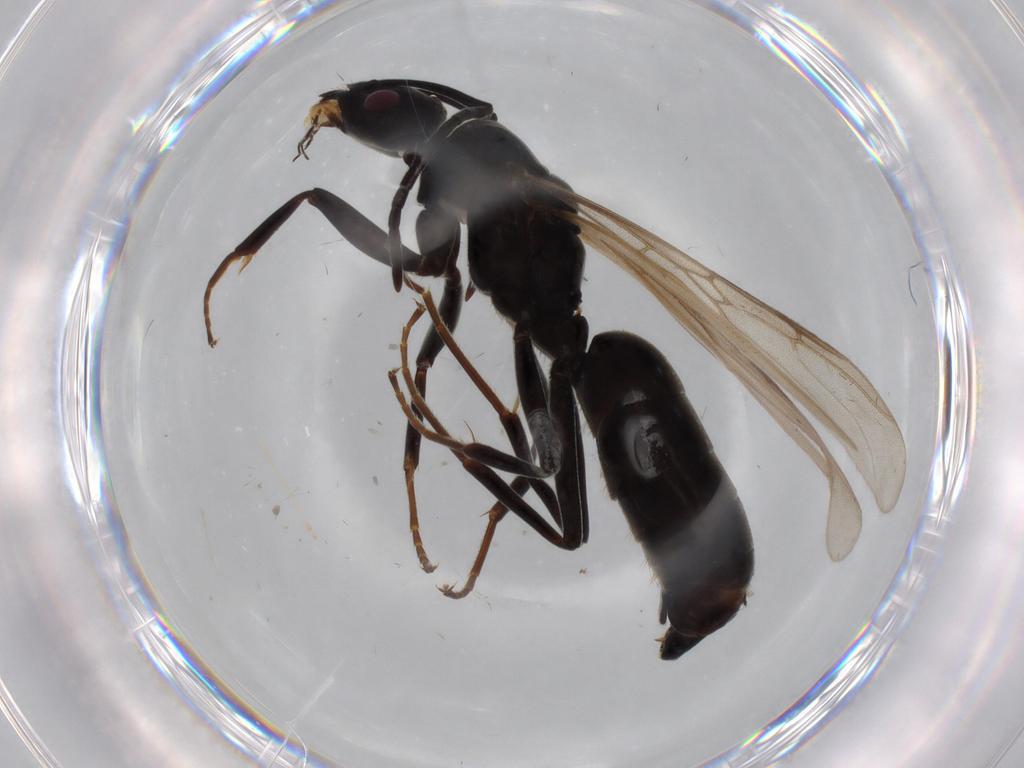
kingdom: Animalia
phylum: Arthropoda
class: Insecta
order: Hymenoptera
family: Formicidae
